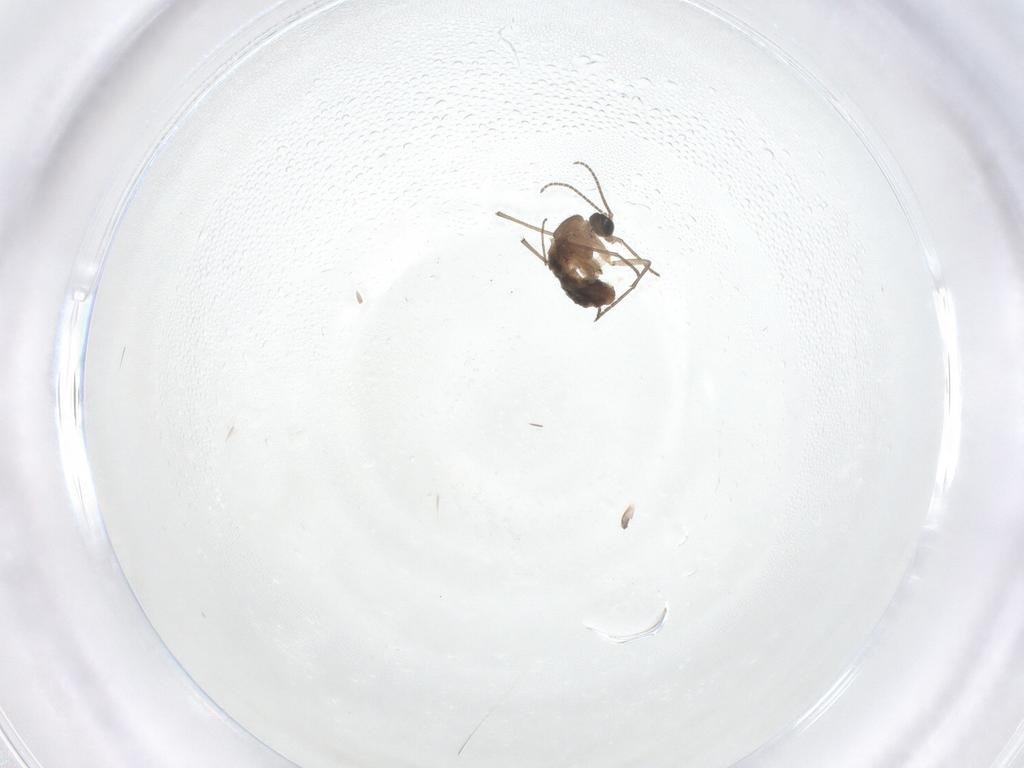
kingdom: Animalia
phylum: Arthropoda
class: Insecta
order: Diptera
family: Sciaridae
